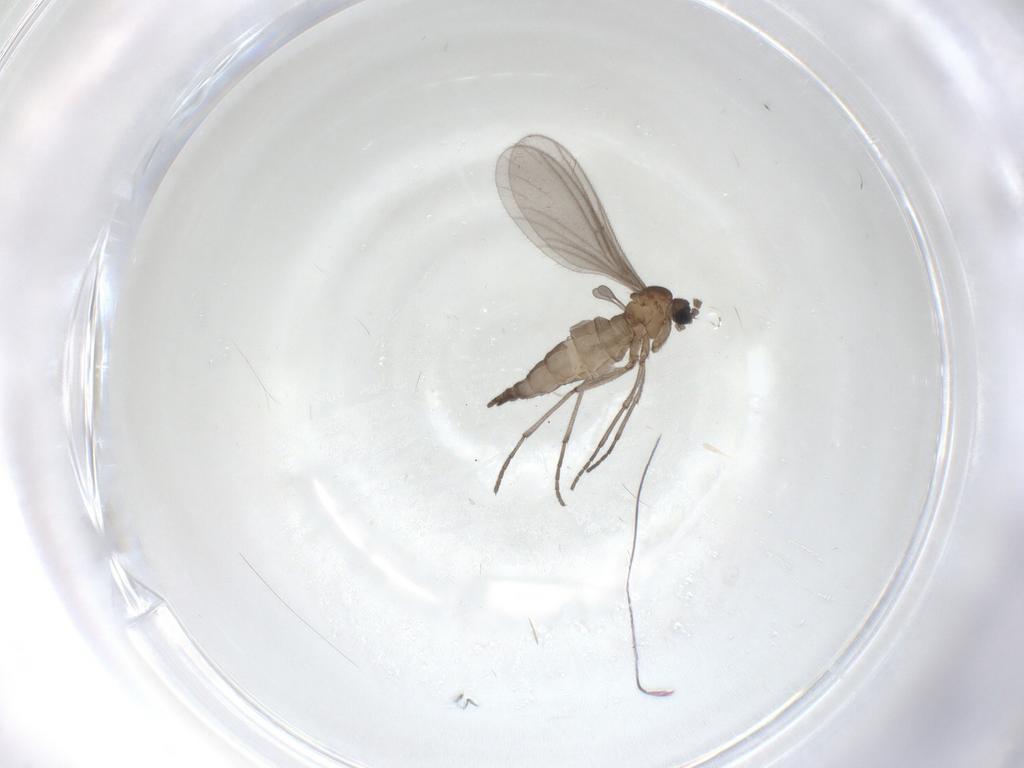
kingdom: Animalia
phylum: Arthropoda
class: Insecta
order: Diptera
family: Sciaridae
